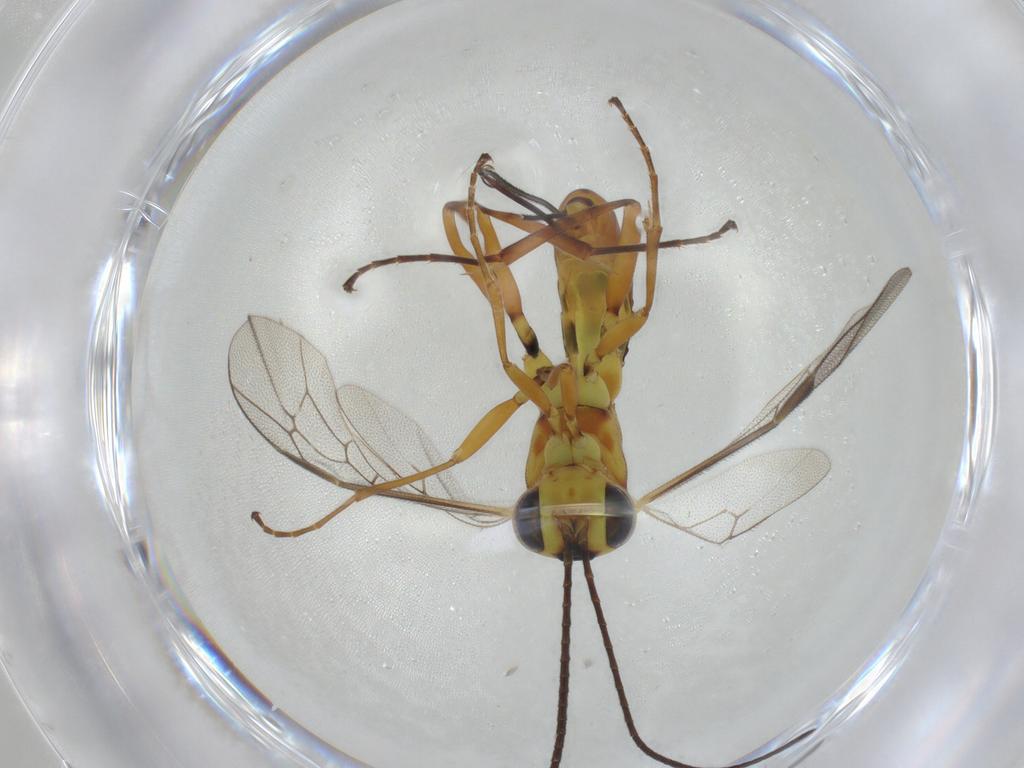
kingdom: Animalia
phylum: Arthropoda
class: Insecta
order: Hymenoptera
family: Ichneumonidae
